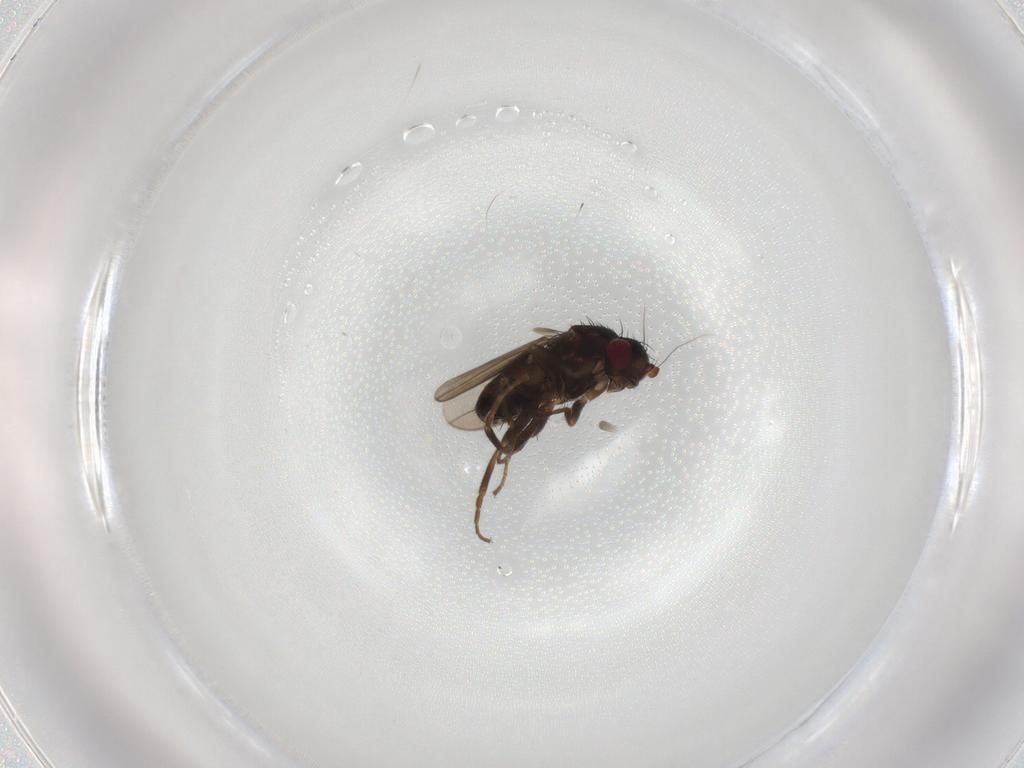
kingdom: Animalia
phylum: Arthropoda
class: Insecta
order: Diptera
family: Sphaeroceridae
